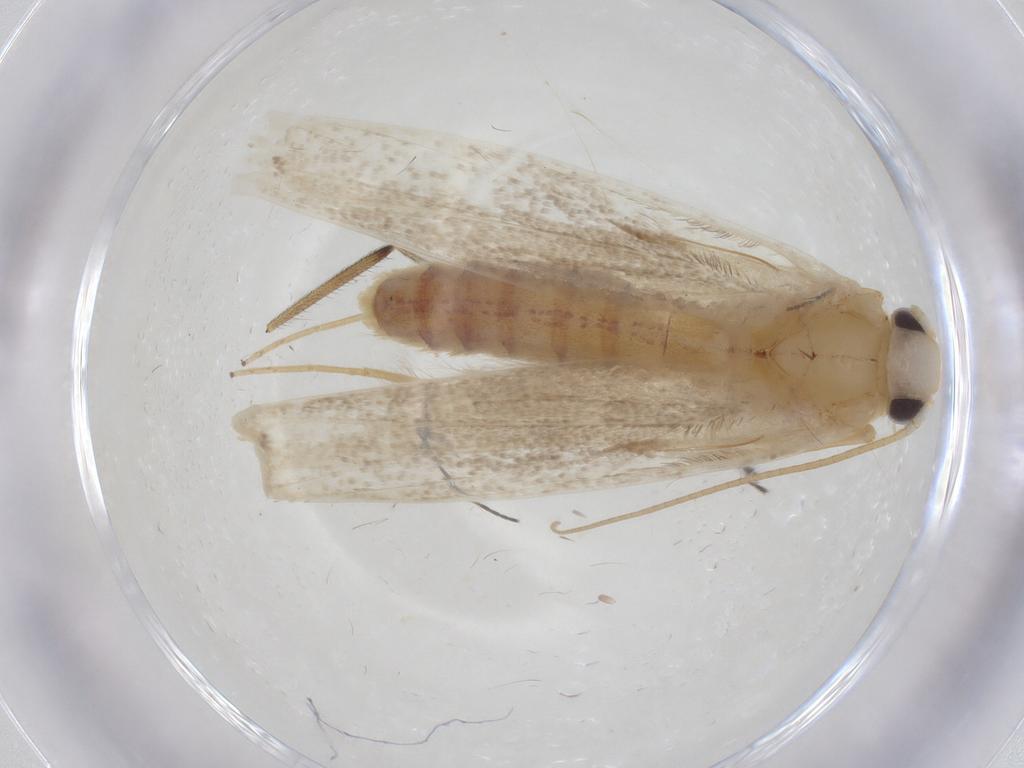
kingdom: Animalia
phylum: Arthropoda
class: Insecta
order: Lepidoptera
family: Erebidae
